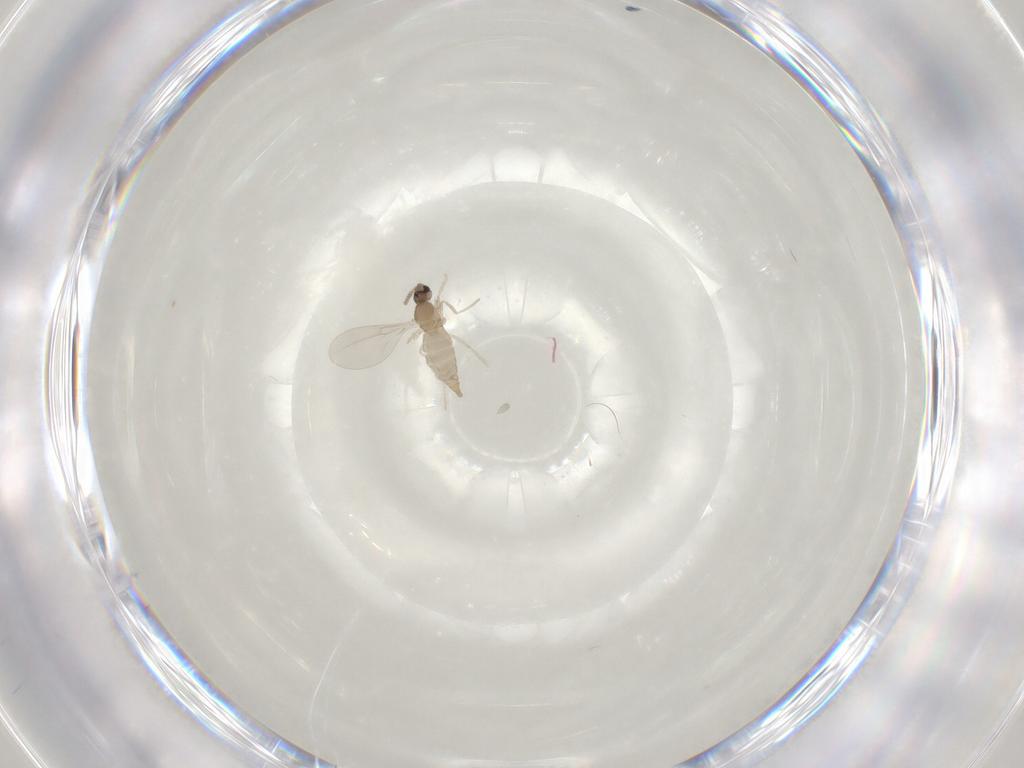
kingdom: Animalia
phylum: Arthropoda
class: Insecta
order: Diptera
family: Cecidomyiidae
